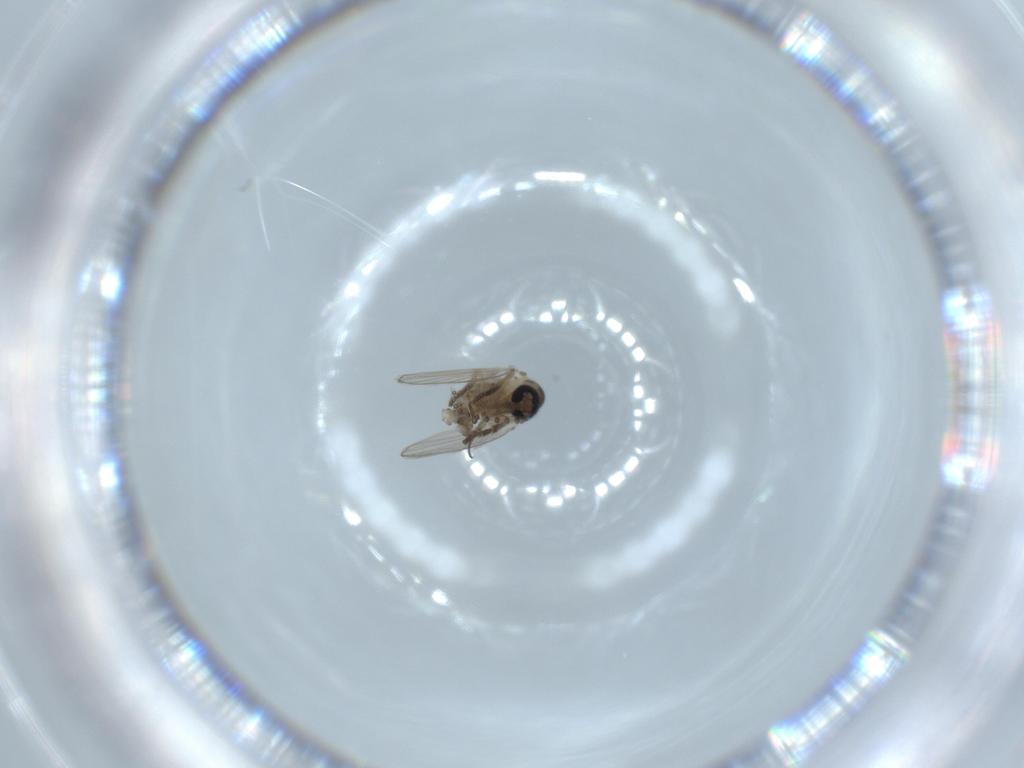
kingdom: Animalia
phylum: Arthropoda
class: Insecta
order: Diptera
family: Lauxaniidae
